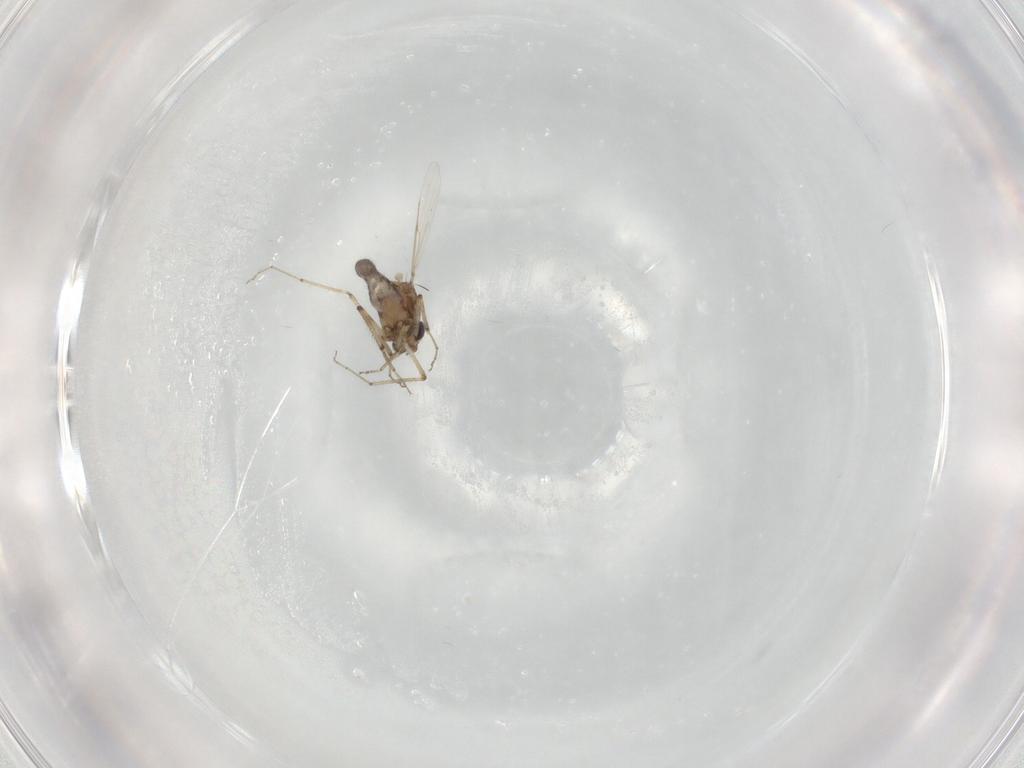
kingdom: Animalia
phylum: Arthropoda
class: Insecta
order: Diptera
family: Ceratopogonidae
